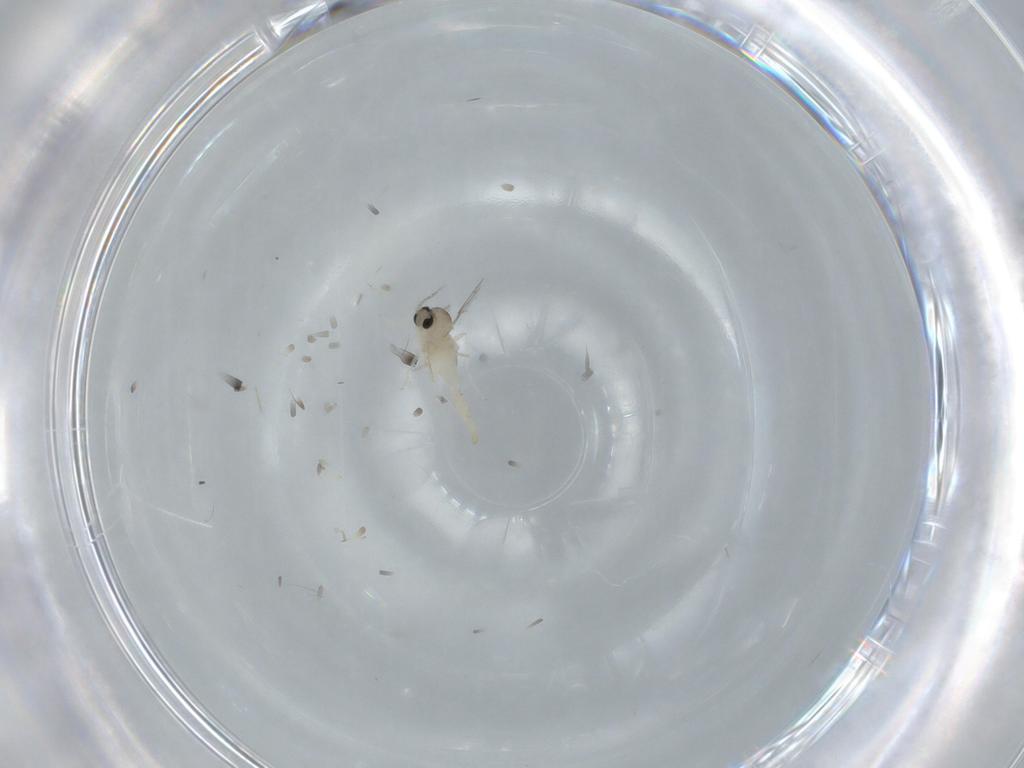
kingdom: Animalia
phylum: Arthropoda
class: Insecta
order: Diptera
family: Cecidomyiidae
